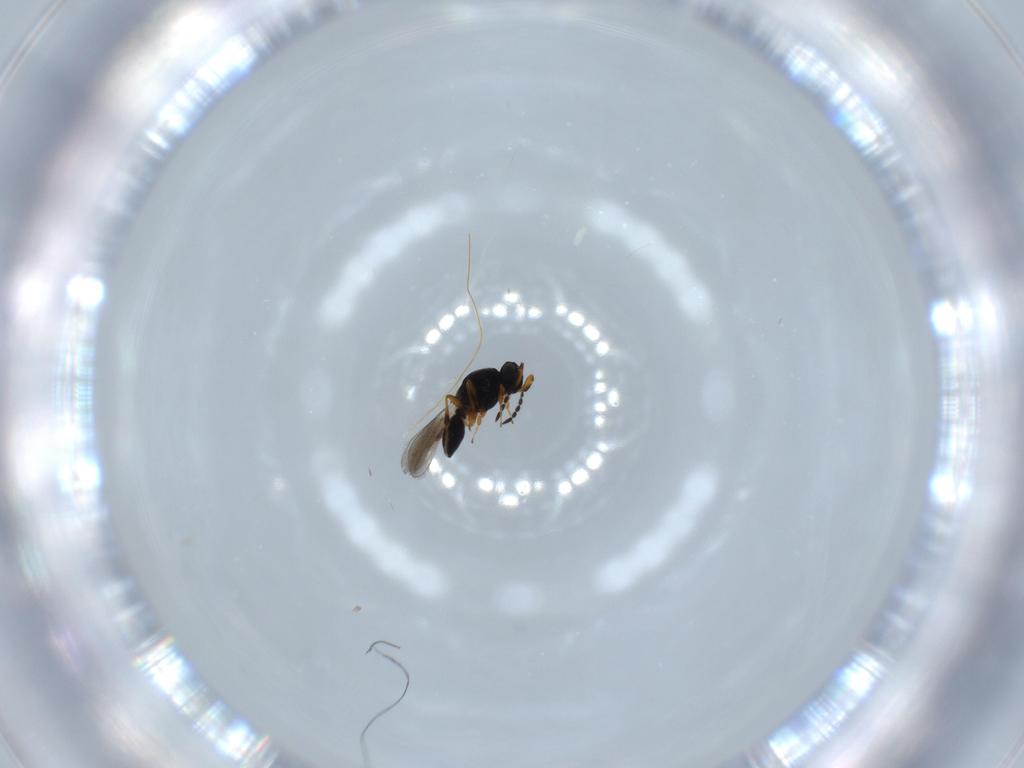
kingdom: Animalia
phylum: Arthropoda
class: Insecta
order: Hymenoptera
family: Platygastridae
